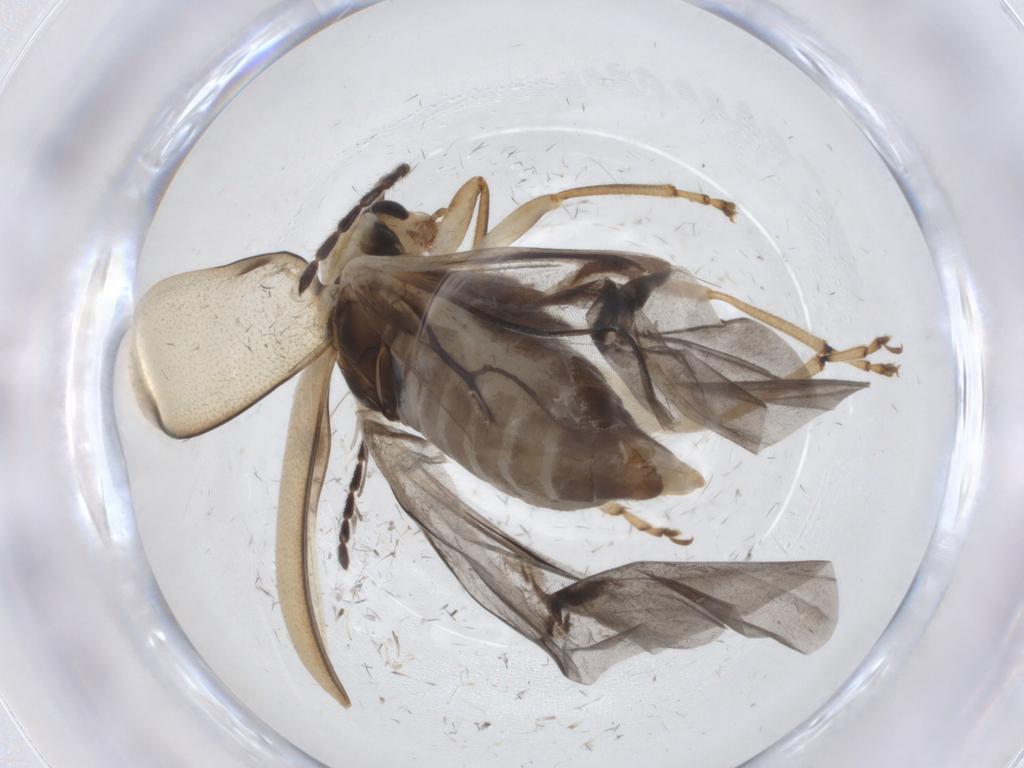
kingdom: Animalia
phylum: Arthropoda
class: Insecta
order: Coleoptera
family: Chrysomelidae
